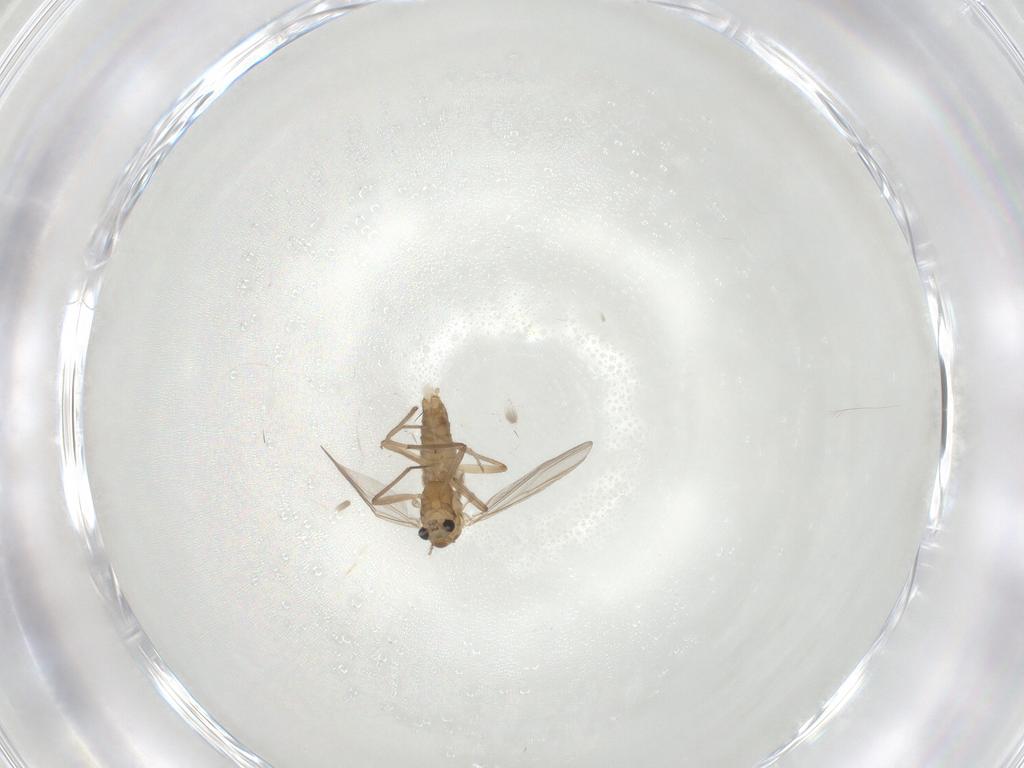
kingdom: Animalia
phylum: Arthropoda
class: Insecta
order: Diptera
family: Chironomidae
